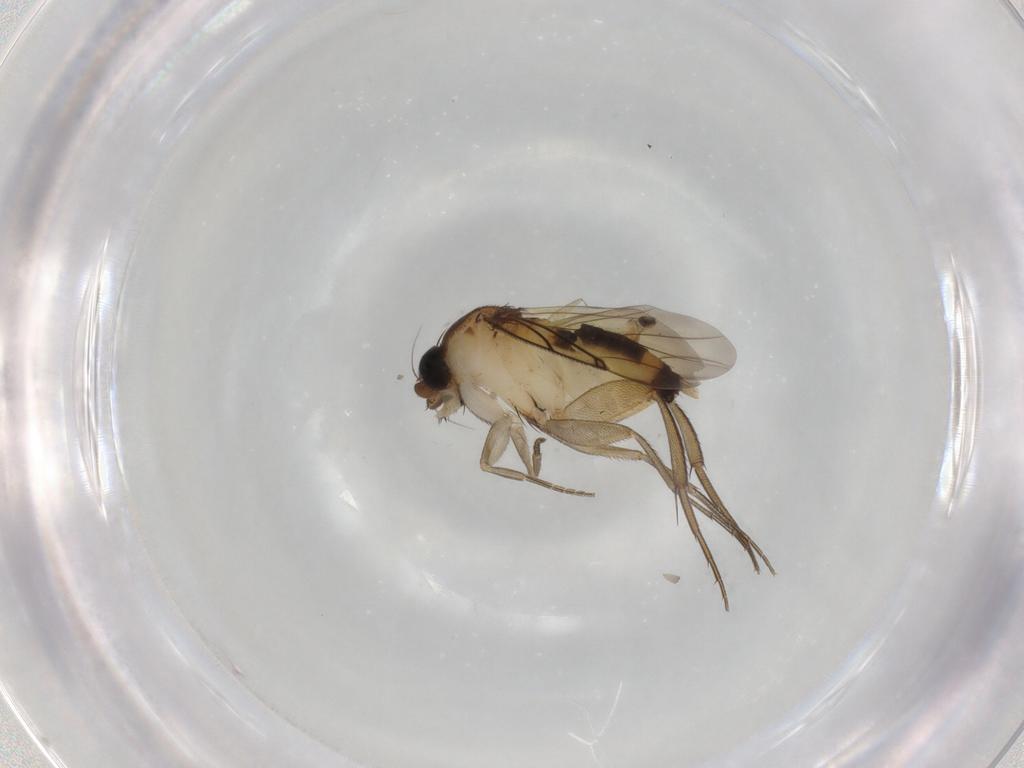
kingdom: Animalia
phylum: Arthropoda
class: Insecta
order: Diptera
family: Cecidomyiidae
